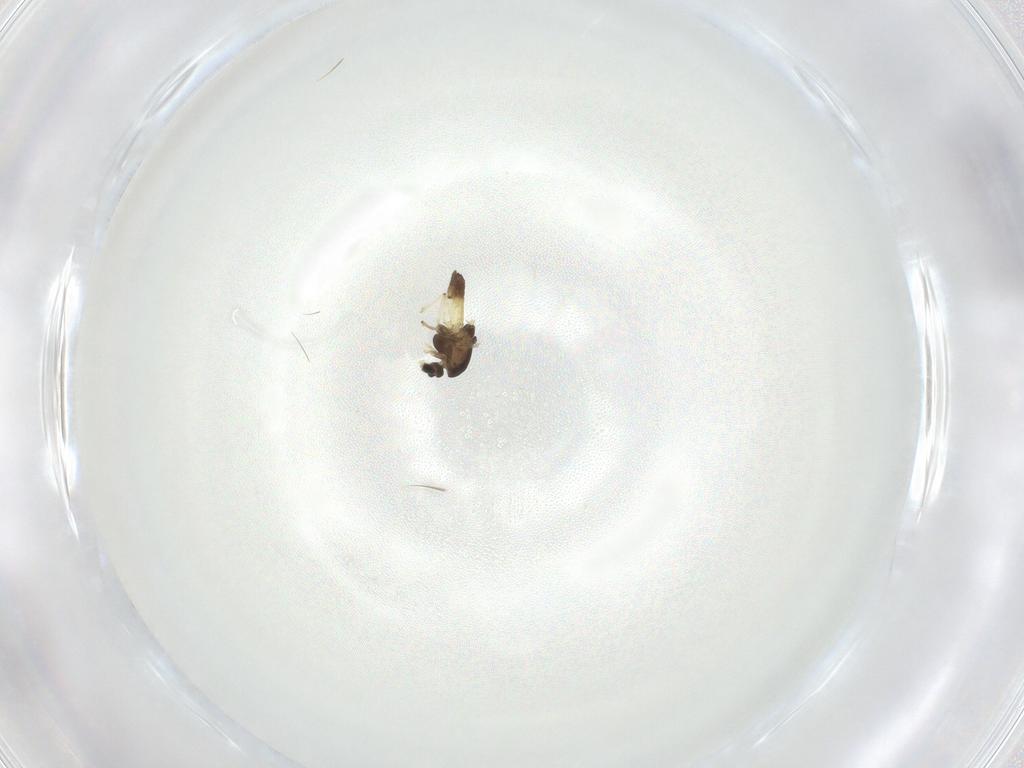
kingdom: Animalia
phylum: Arthropoda
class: Insecta
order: Diptera
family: Chironomidae
